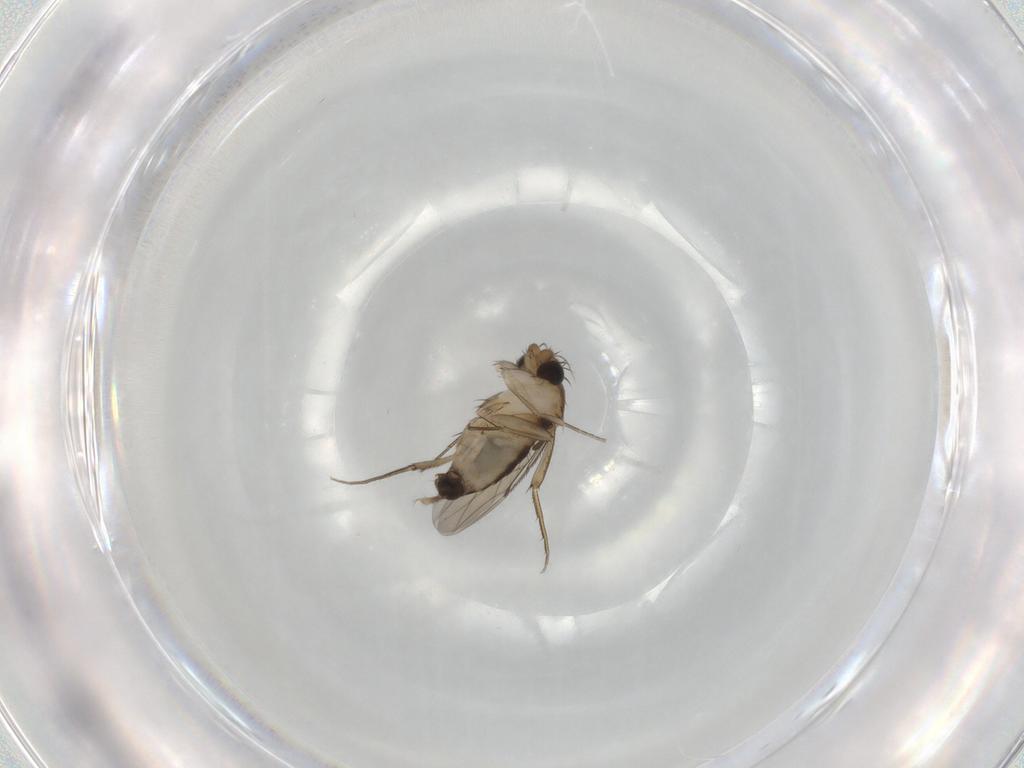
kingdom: Animalia
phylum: Arthropoda
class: Insecta
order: Diptera
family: Phoridae
